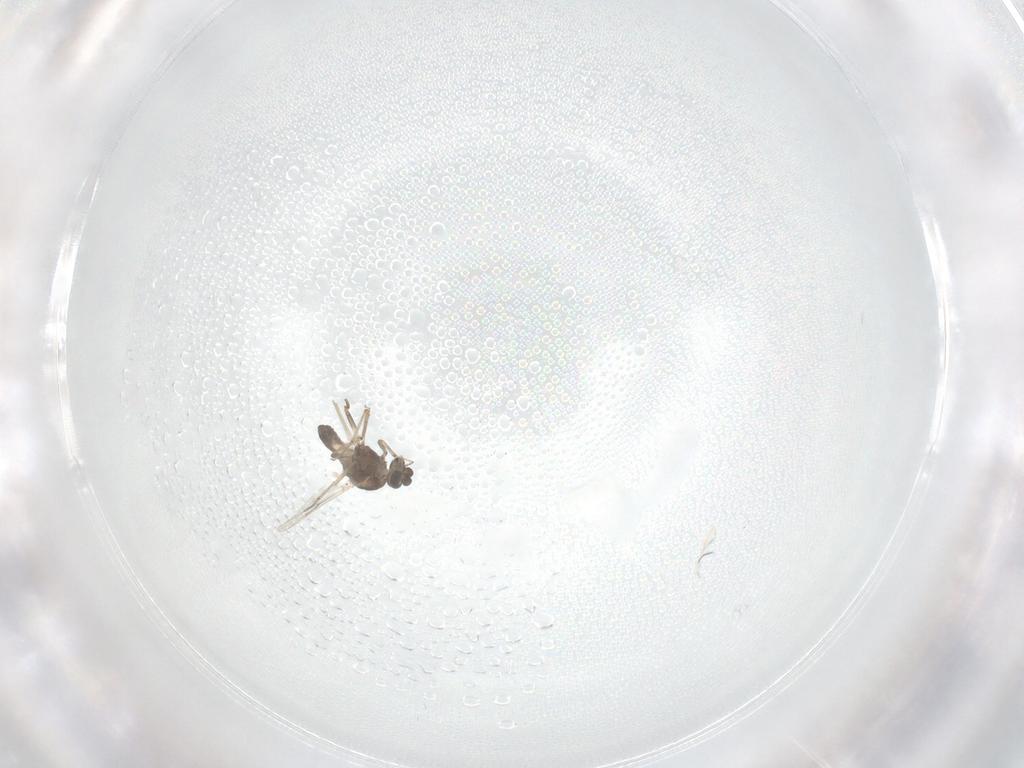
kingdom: Animalia
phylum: Arthropoda
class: Insecta
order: Diptera
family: Ceratopogonidae
